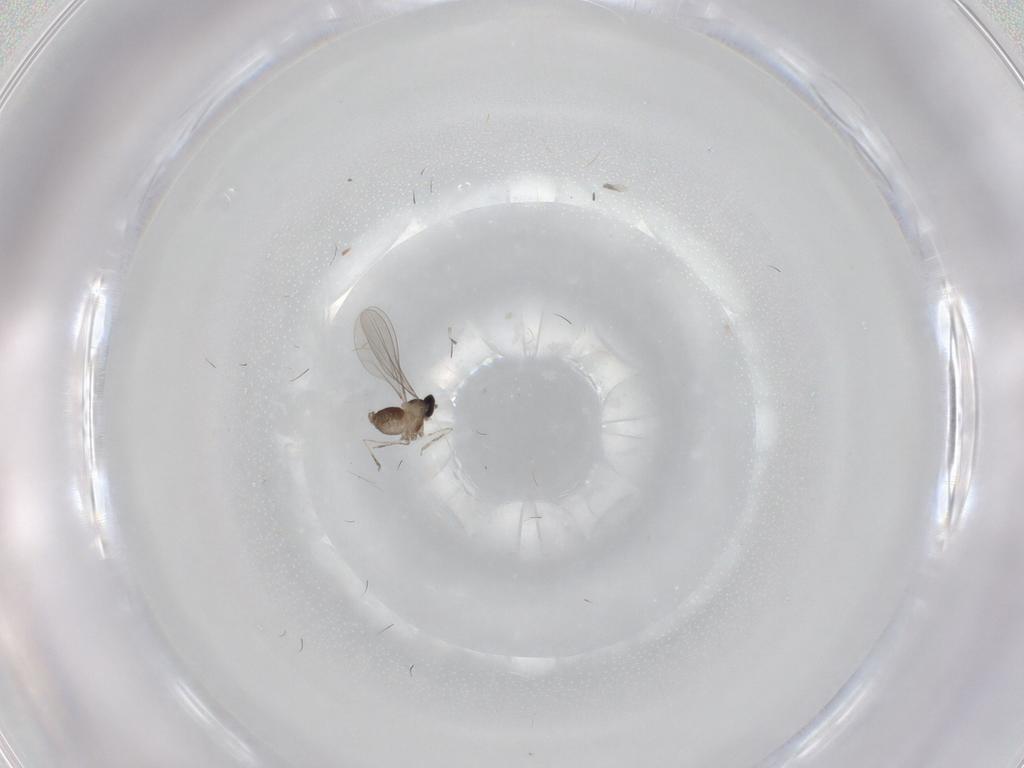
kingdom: Animalia
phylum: Arthropoda
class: Insecta
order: Diptera
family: Cecidomyiidae
